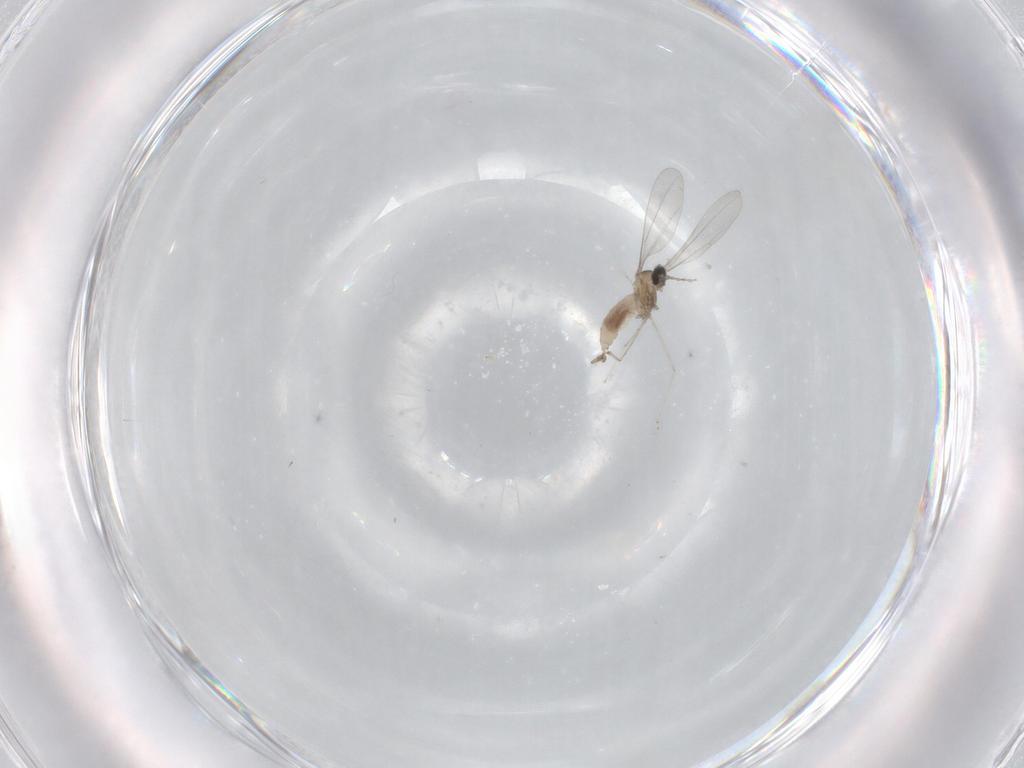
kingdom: Animalia
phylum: Arthropoda
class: Insecta
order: Diptera
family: Cecidomyiidae
